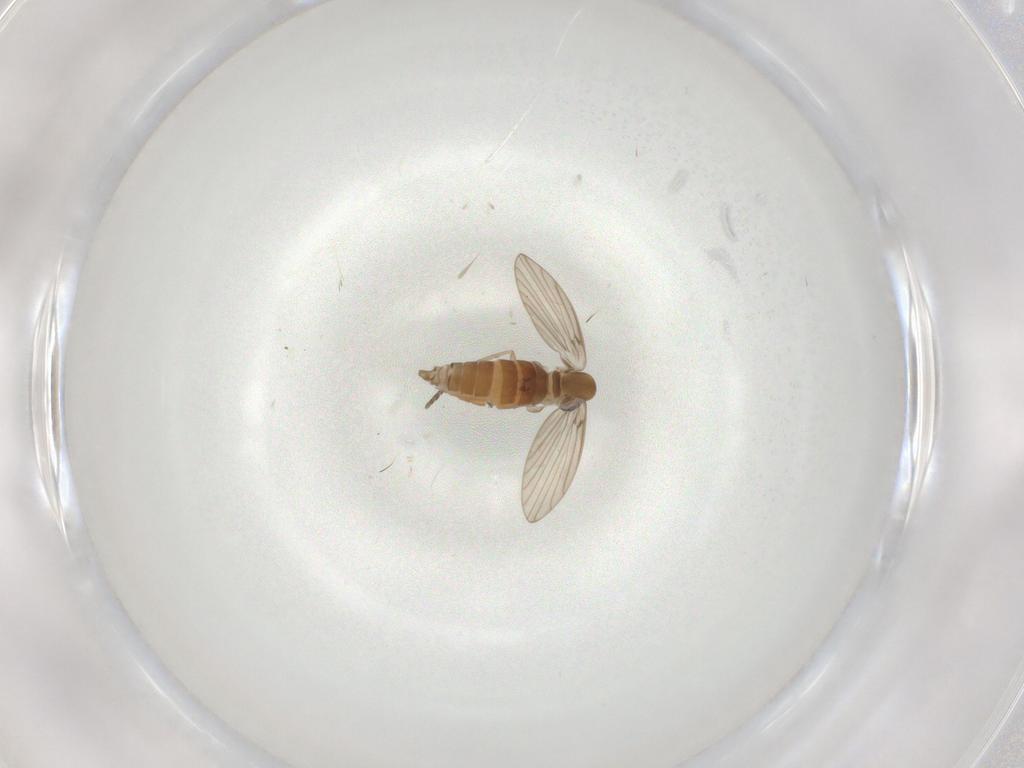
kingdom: Animalia
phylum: Arthropoda
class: Insecta
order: Diptera
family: Psychodidae
